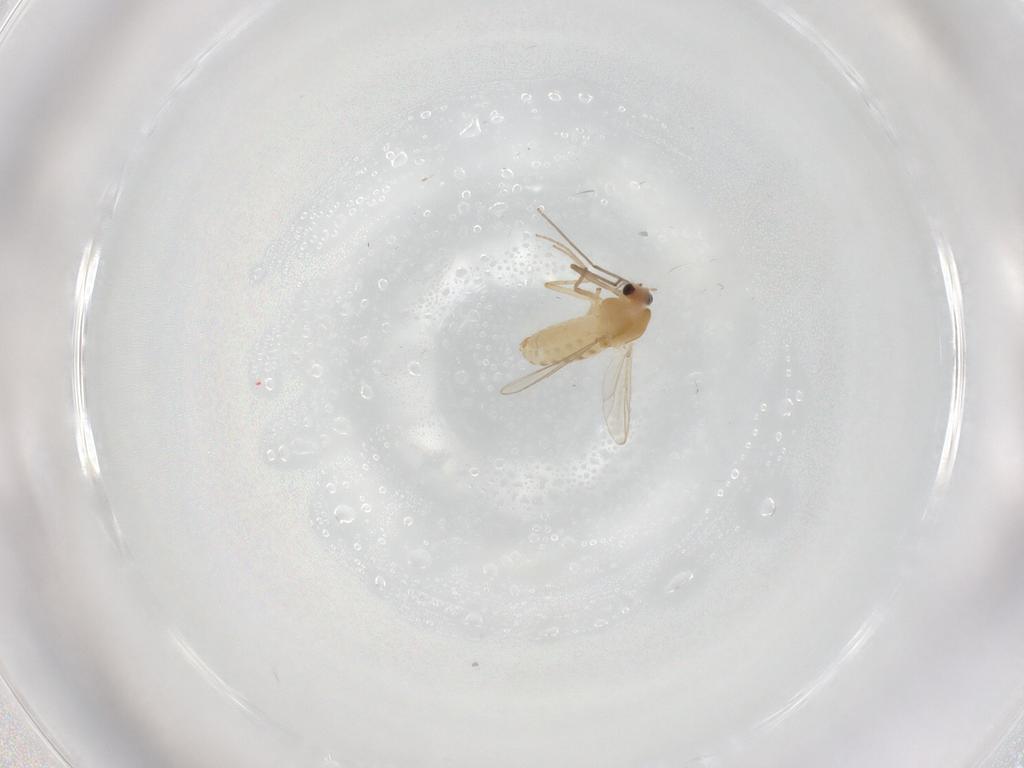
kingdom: Animalia
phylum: Arthropoda
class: Insecta
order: Diptera
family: Chironomidae
